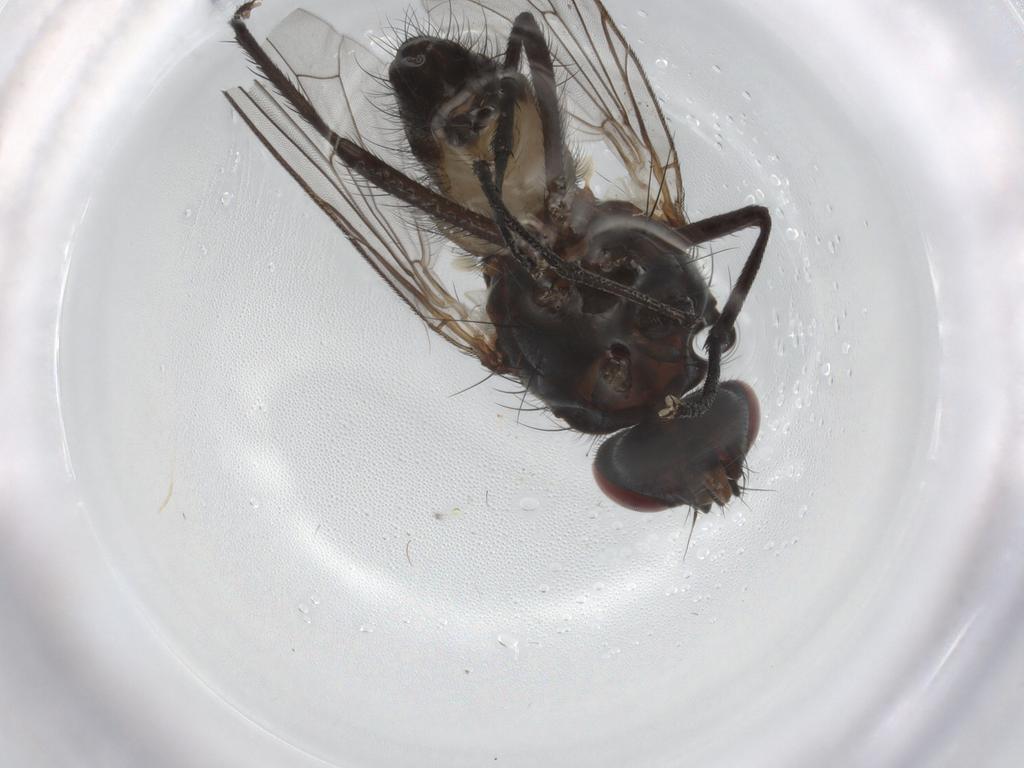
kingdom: Animalia
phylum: Arthropoda
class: Insecta
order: Diptera
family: Anthomyiidae
